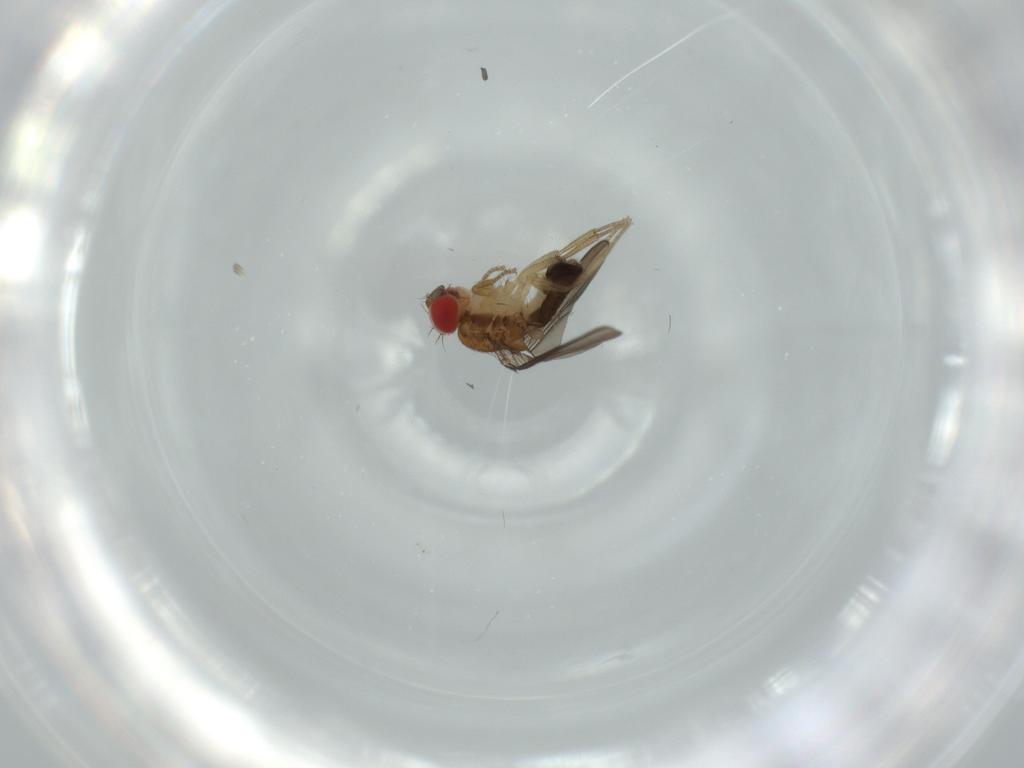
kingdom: Animalia
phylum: Arthropoda
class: Insecta
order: Diptera
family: Drosophilidae
